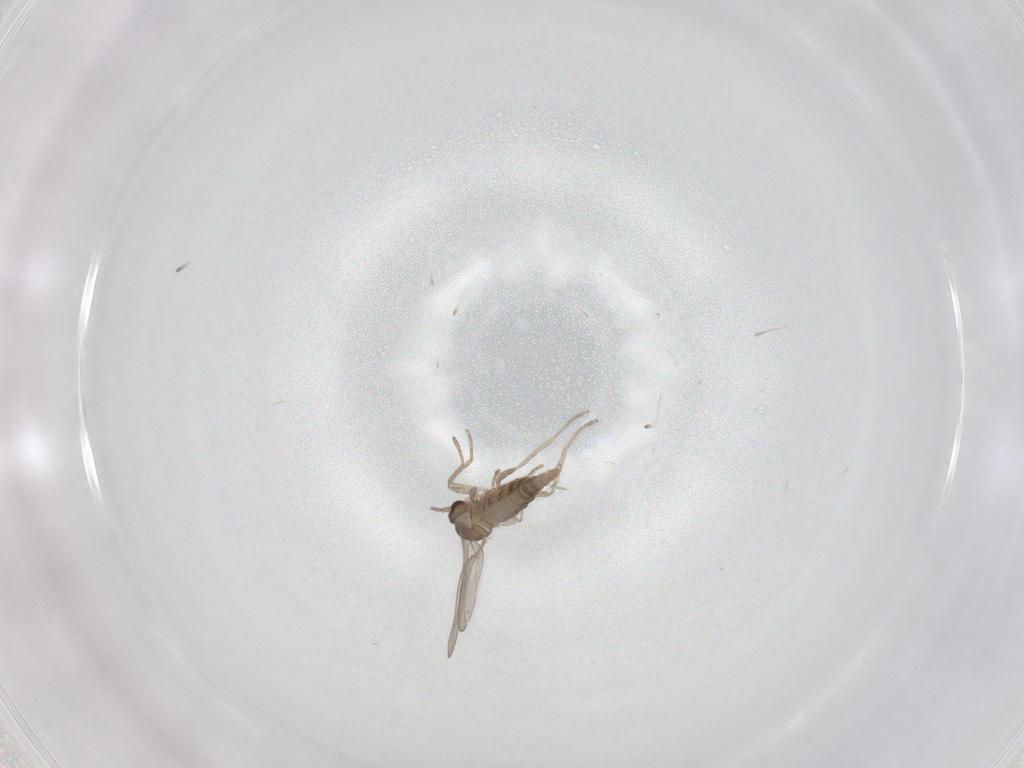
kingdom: Animalia
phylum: Arthropoda
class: Insecta
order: Diptera
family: Cecidomyiidae
